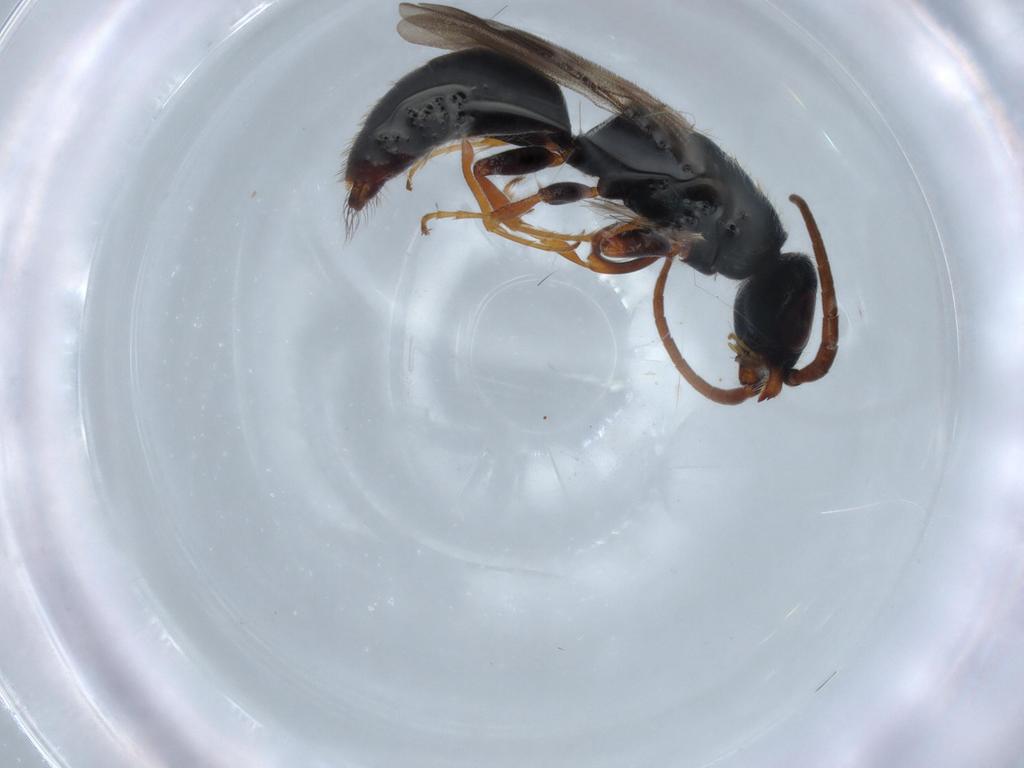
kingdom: Animalia
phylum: Arthropoda
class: Insecta
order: Hymenoptera
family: Bethylidae
